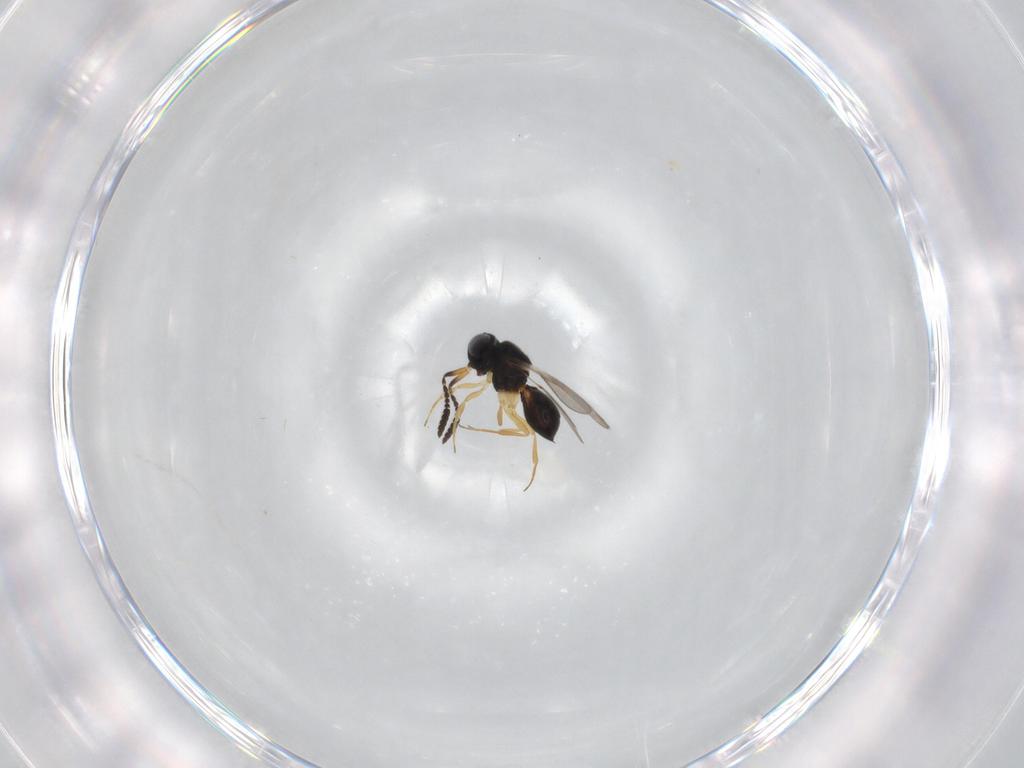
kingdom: Animalia
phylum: Arthropoda
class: Insecta
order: Hymenoptera
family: Scelionidae
